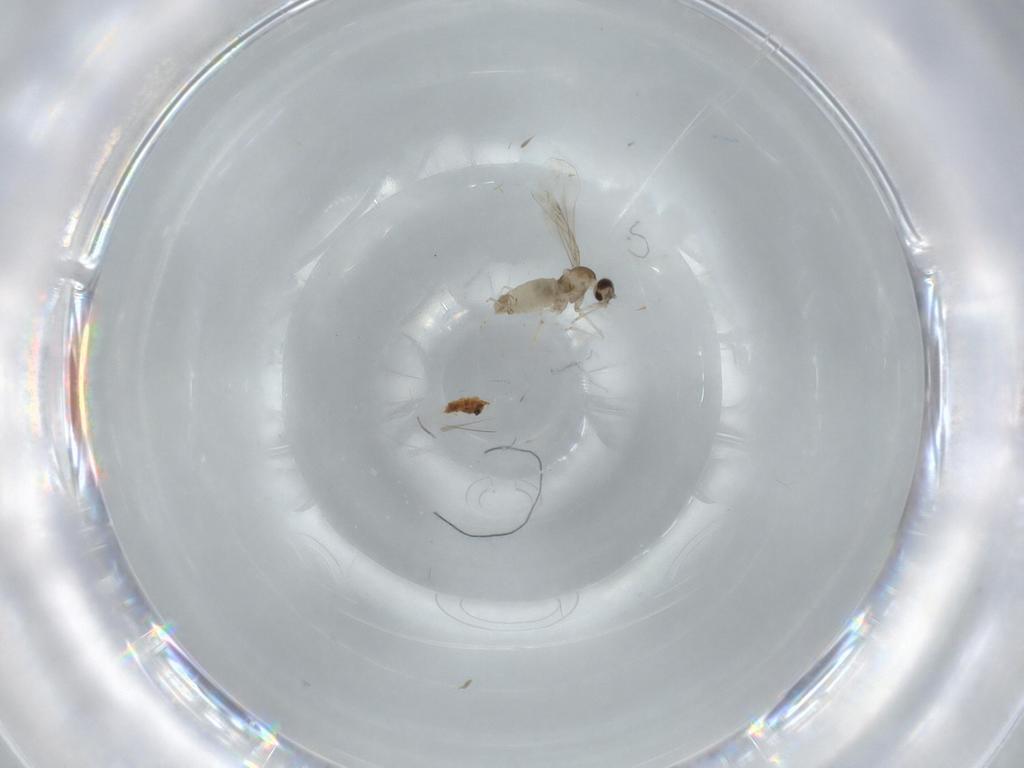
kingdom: Animalia
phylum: Arthropoda
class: Insecta
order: Diptera
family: Cecidomyiidae
